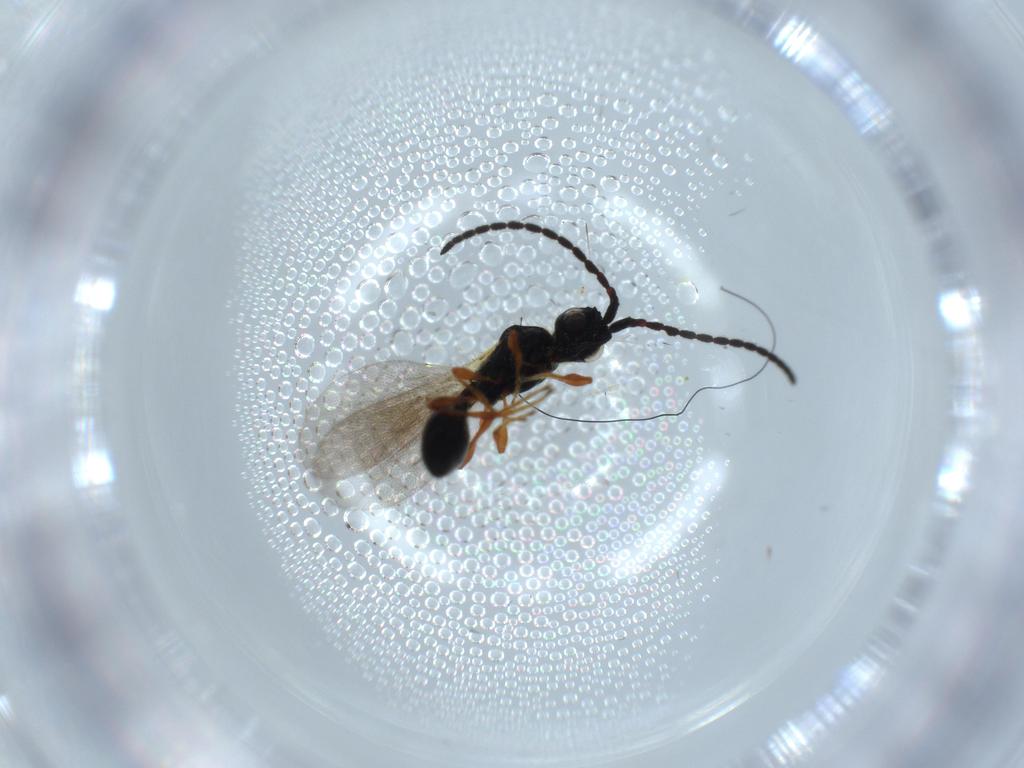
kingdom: Animalia
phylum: Arthropoda
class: Insecta
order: Hymenoptera
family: Diapriidae
